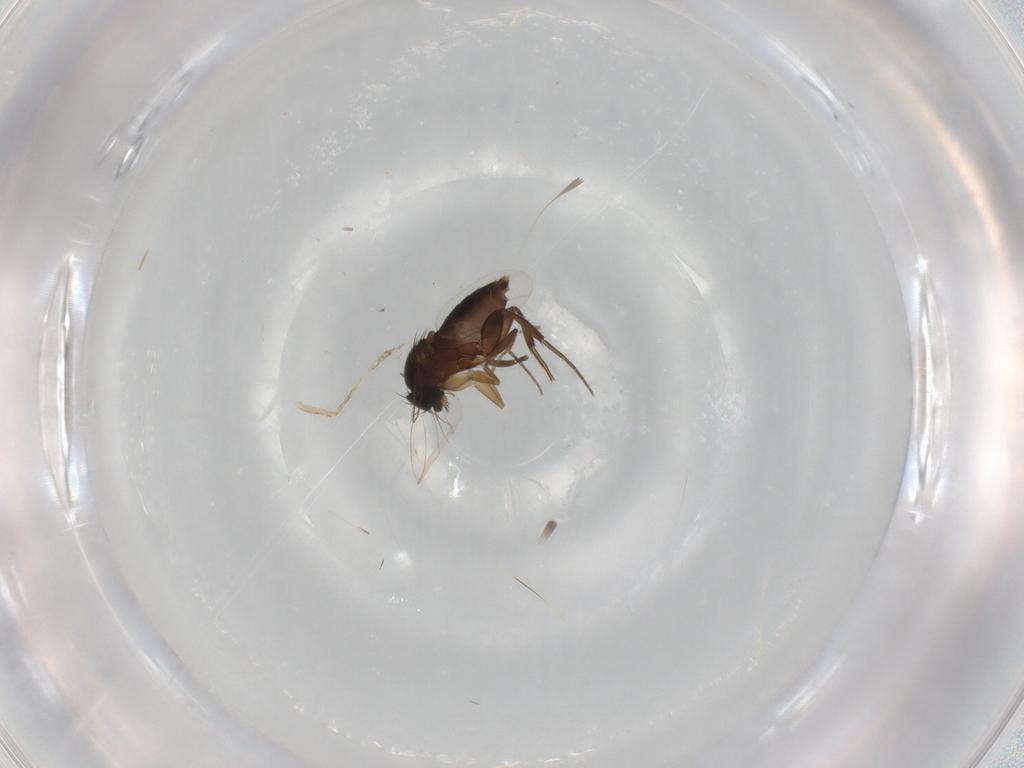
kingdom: Animalia
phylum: Arthropoda
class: Insecta
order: Diptera
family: Phoridae
